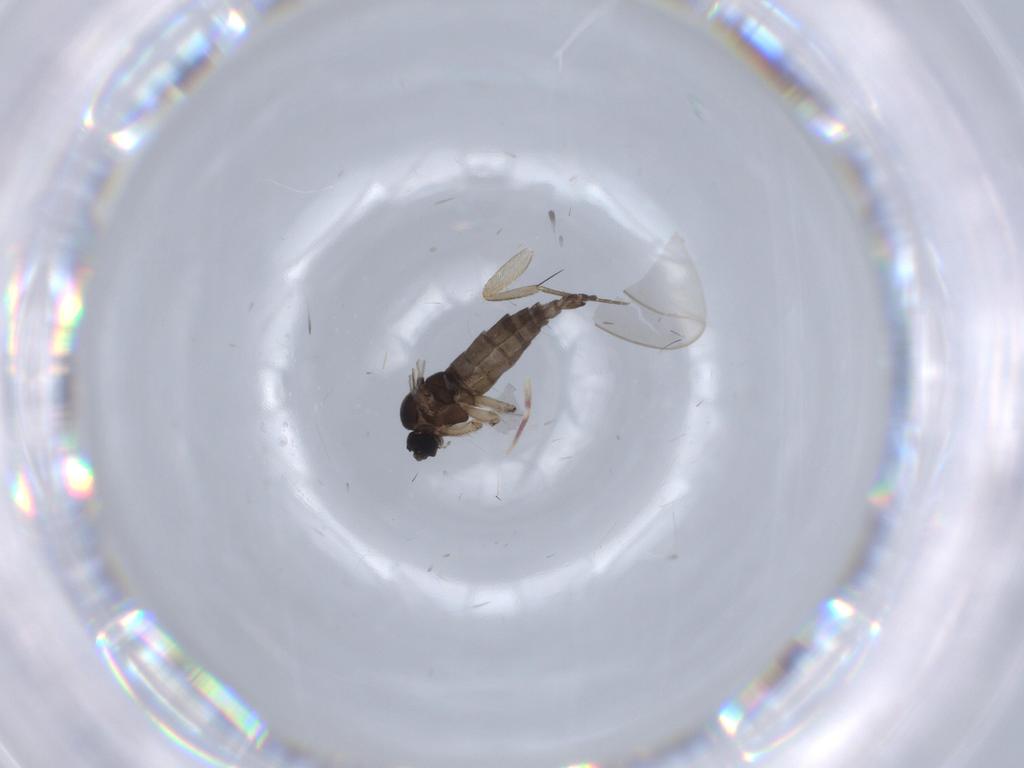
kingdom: Animalia
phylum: Arthropoda
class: Insecta
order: Diptera
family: Sciaridae
